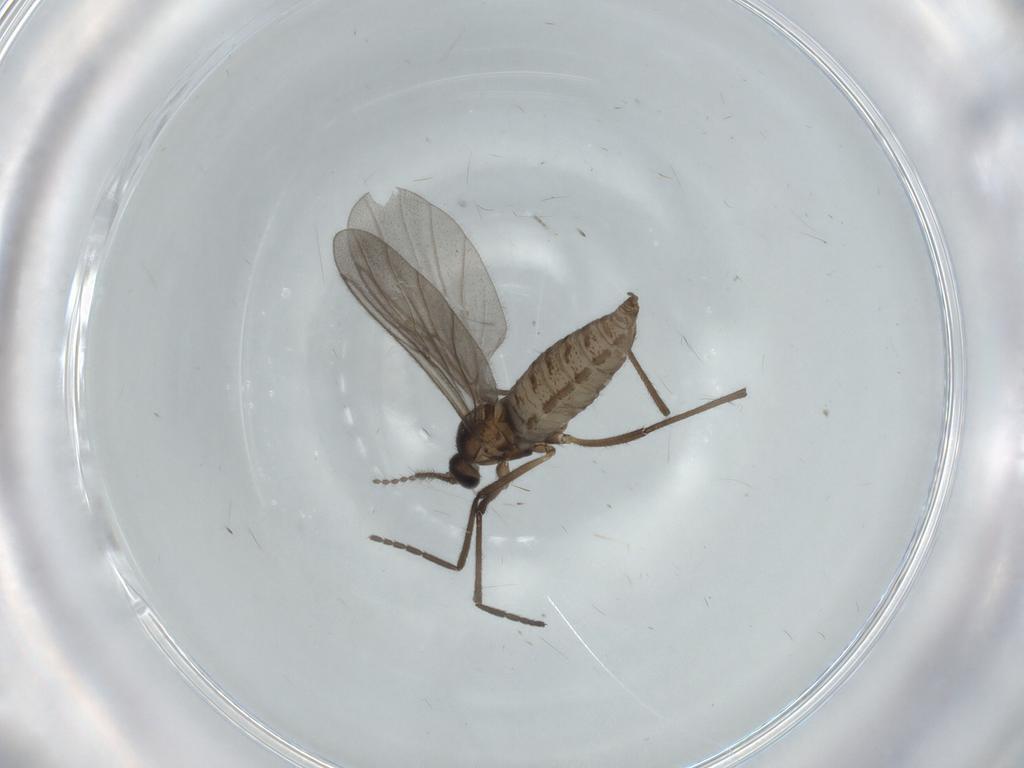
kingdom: Animalia
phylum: Arthropoda
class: Insecta
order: Diptera
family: Cecidomyiidae
